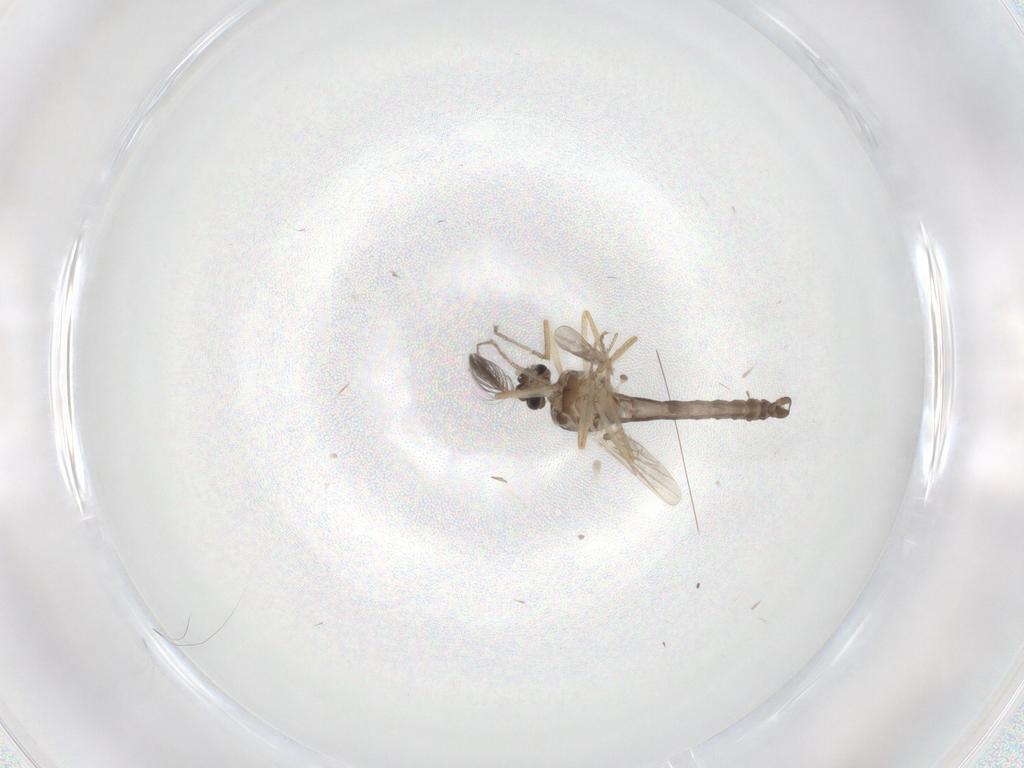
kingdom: Animalia
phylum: Arthropoda
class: Insecta
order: Diptera
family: Ceratopogonidae
